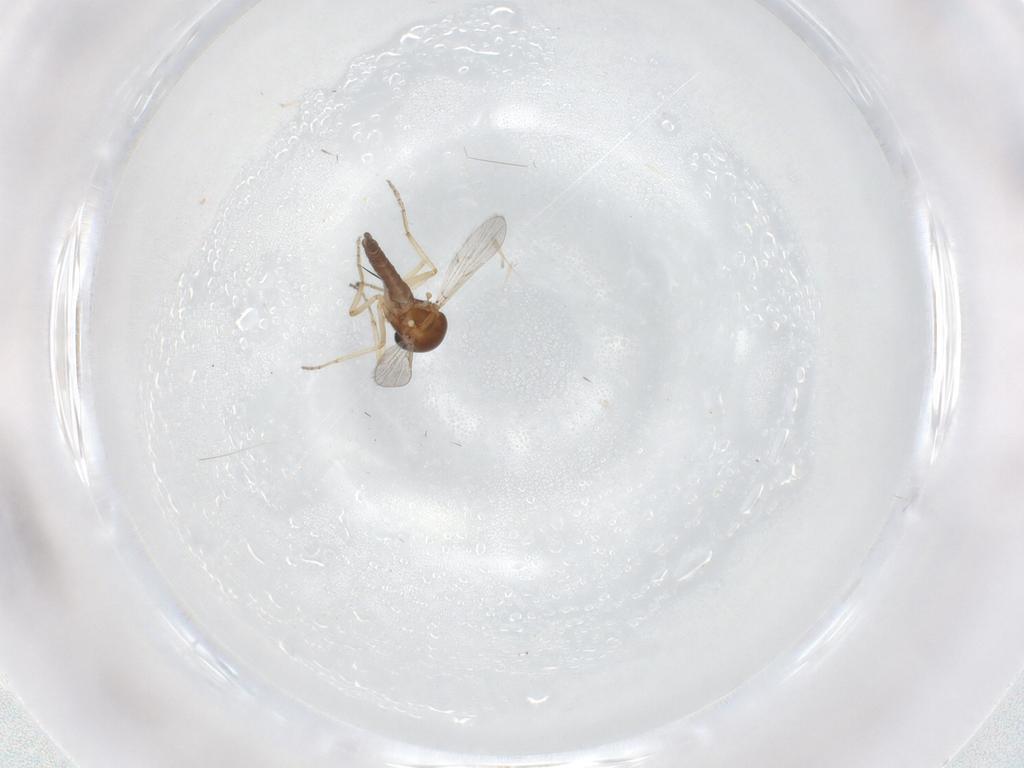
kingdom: Animalia
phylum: Arthropoda
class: Insecta
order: Diptera
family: Ceratopogonidae
